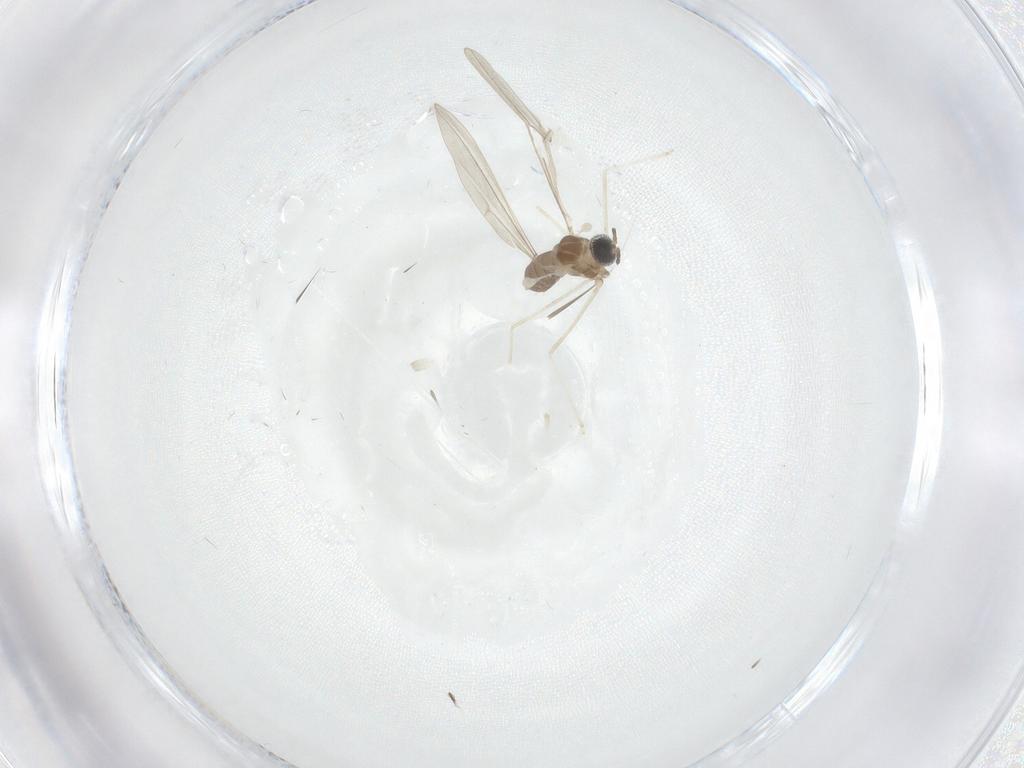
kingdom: Animalia
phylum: Arthropoda
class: Insecta
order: Diptera
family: Cecidomyiidae
